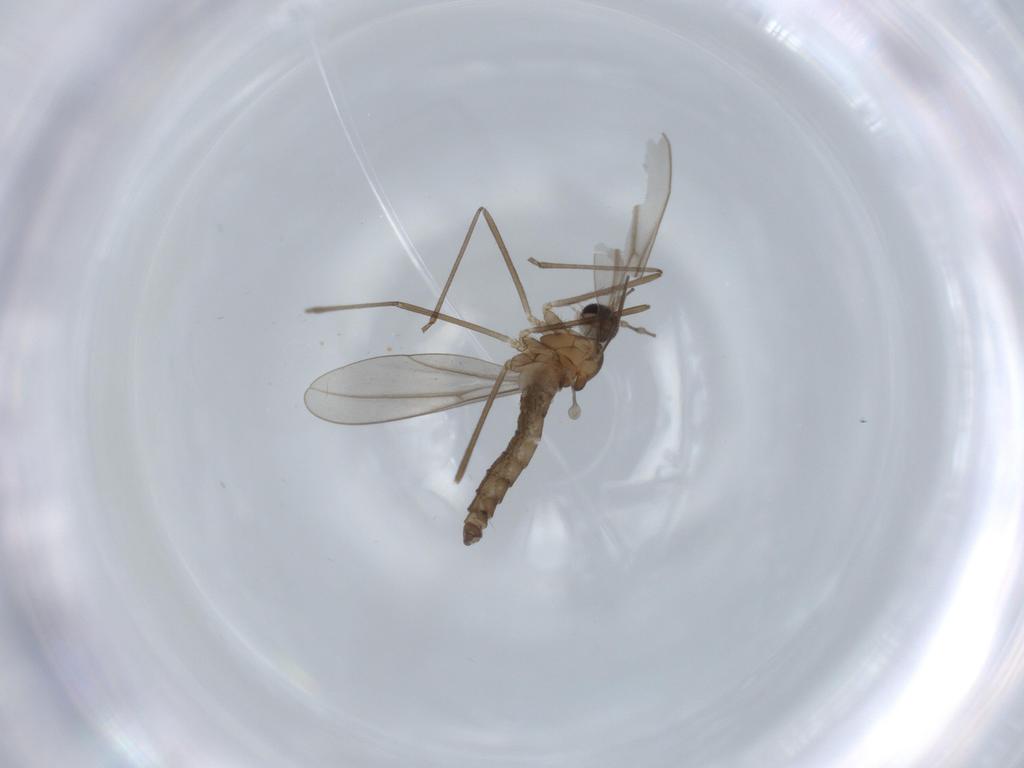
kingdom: Animalia
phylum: Arthropoda
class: Insecta
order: Diptera
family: Cecidomyiidae
